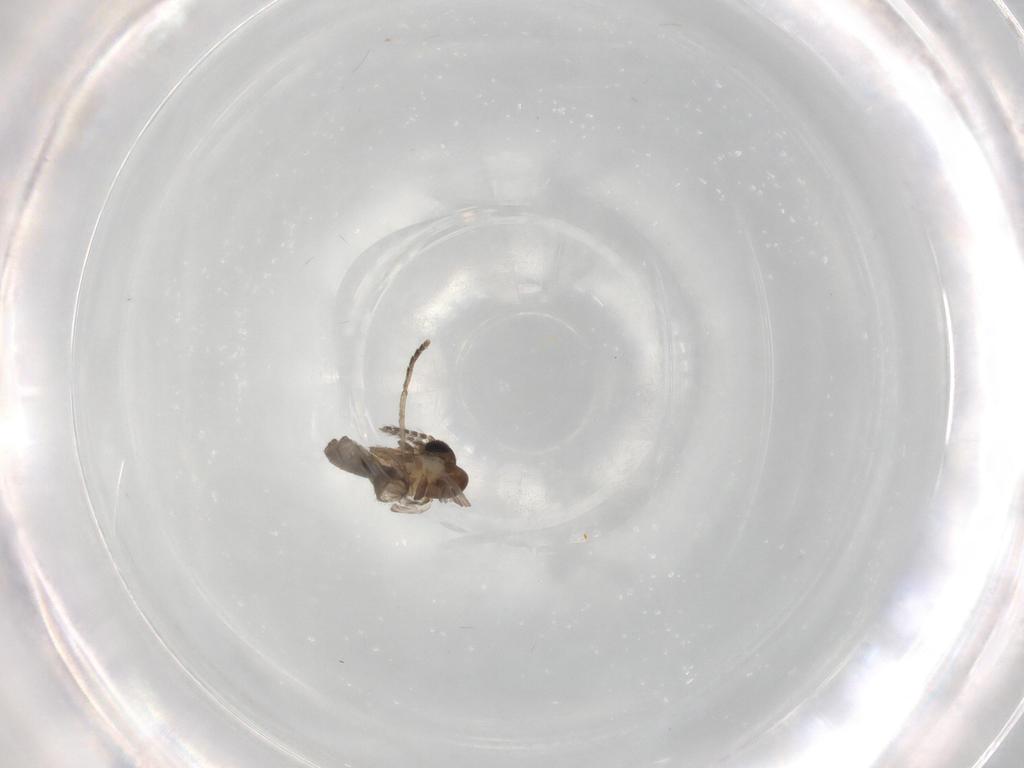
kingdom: Animalia
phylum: Arthropoda
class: Insecta
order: Diptera
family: Psychodidae
